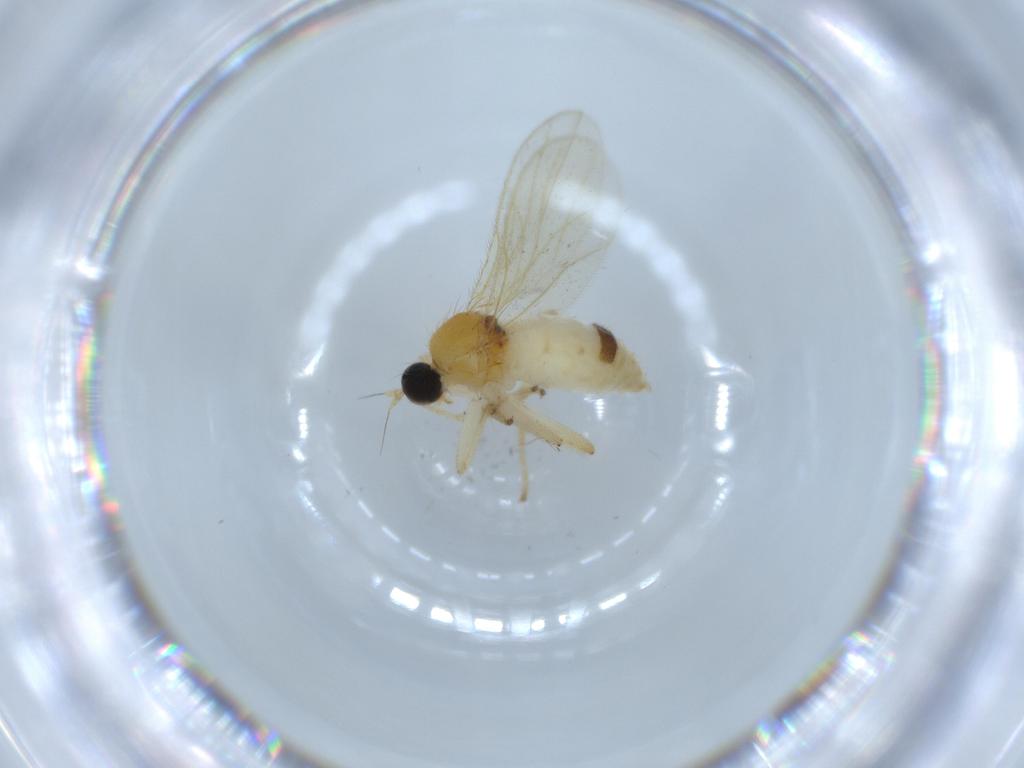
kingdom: Animalia
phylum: Arthropoda
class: Insecta
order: Diptera
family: Hybotidae
